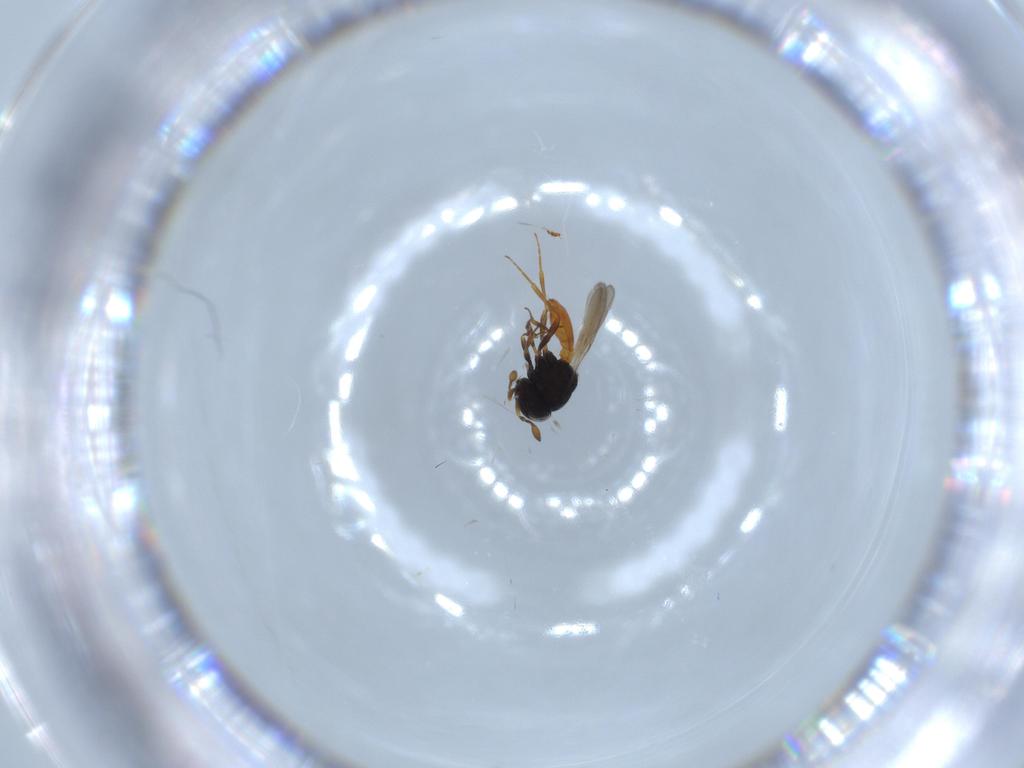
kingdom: Animalia
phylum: Arthropoda
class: Insecta
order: Hymenoptera
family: Scelionidae
